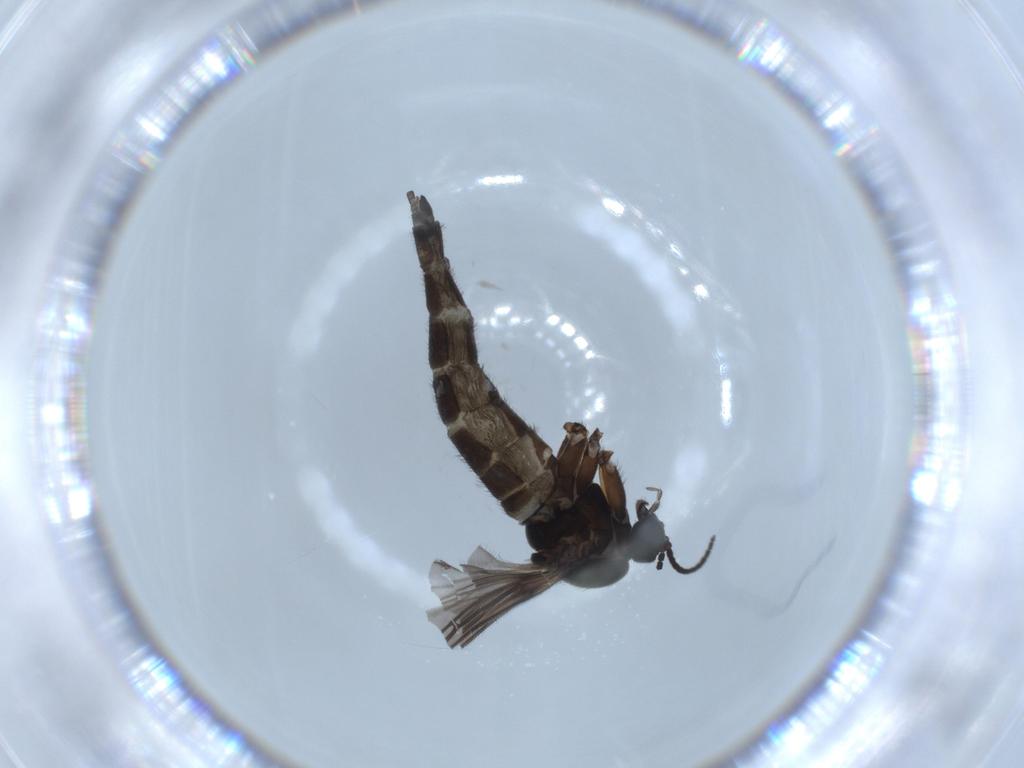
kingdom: Animalia
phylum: Arthropoda
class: Insecta
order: Diptera
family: Sciaridae
